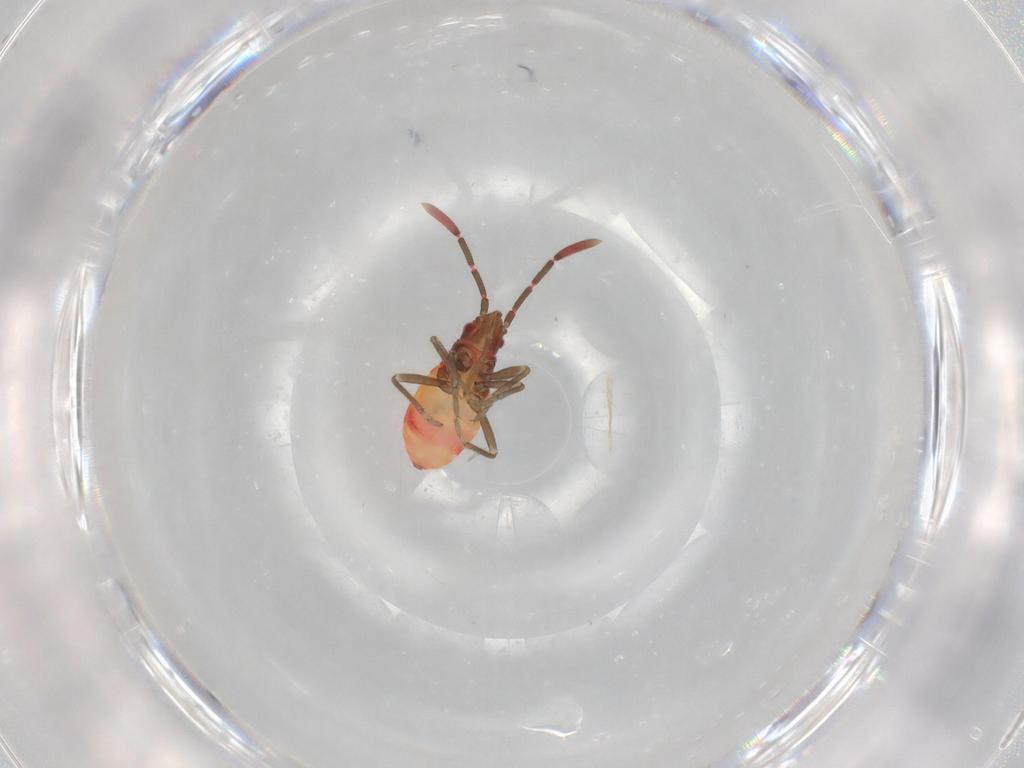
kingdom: Animalia
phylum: Arthropoda
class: Insecta
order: Hemiptera
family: Rhyparochromidae
